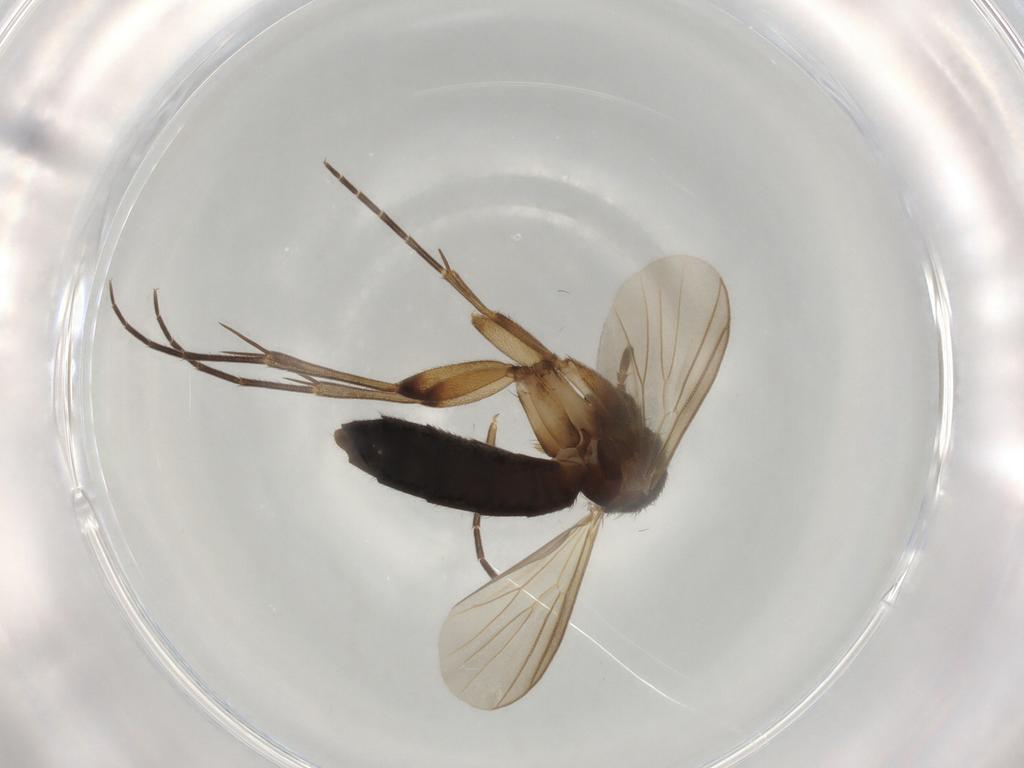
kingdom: Animalia
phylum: Arthropoda
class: Insecta
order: Diptera
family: Mycetophilidae
